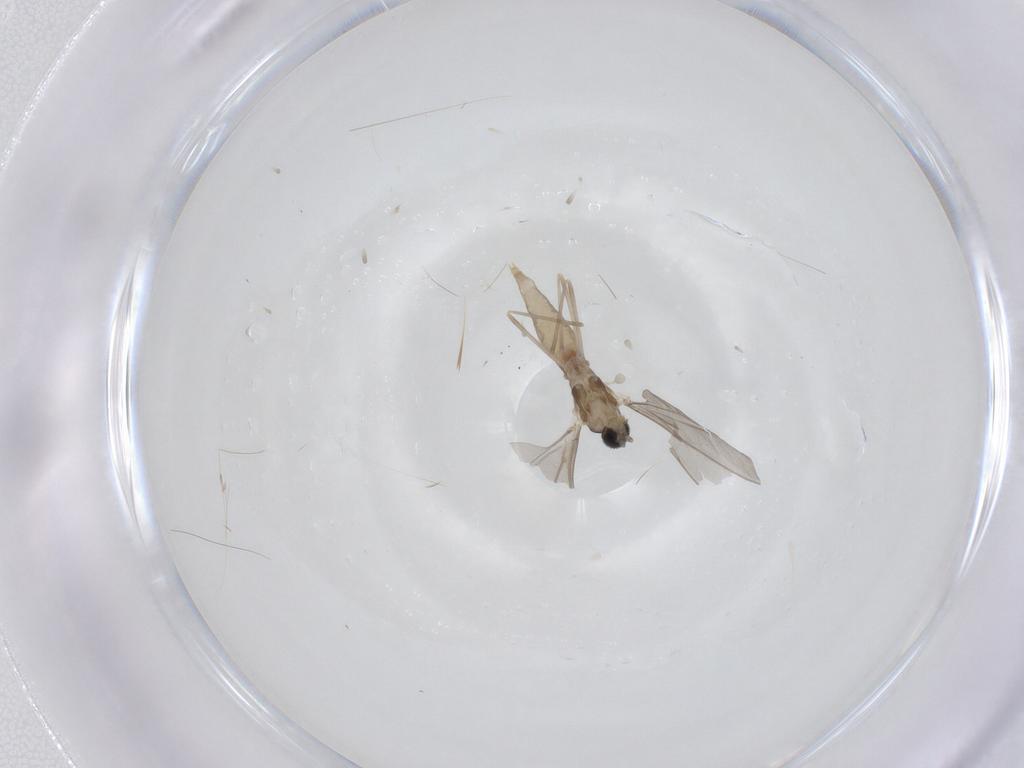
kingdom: Animalia
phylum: Arthropoda
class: Insecta
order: Diptera
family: Cecidomyiidae
